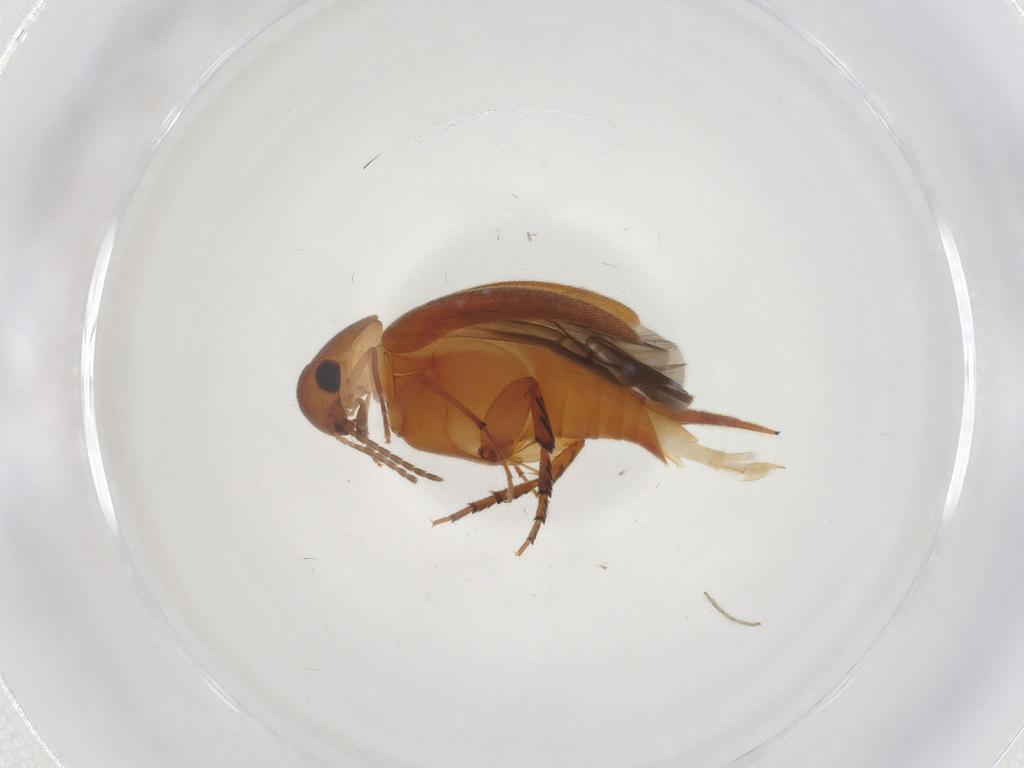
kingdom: Animalia
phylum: Arthropoda
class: Insecta
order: Coleoptera
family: Mordellidae
